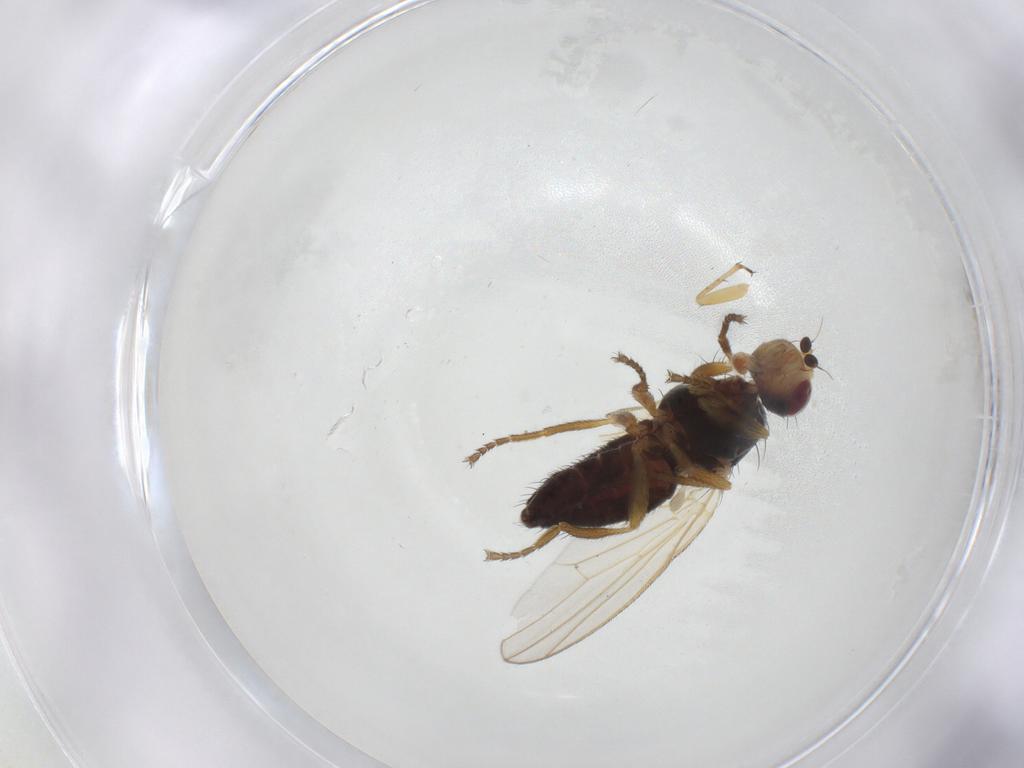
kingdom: Animalia
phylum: Arthropoda
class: Insecta
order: Diptera
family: Heleomyzidae
